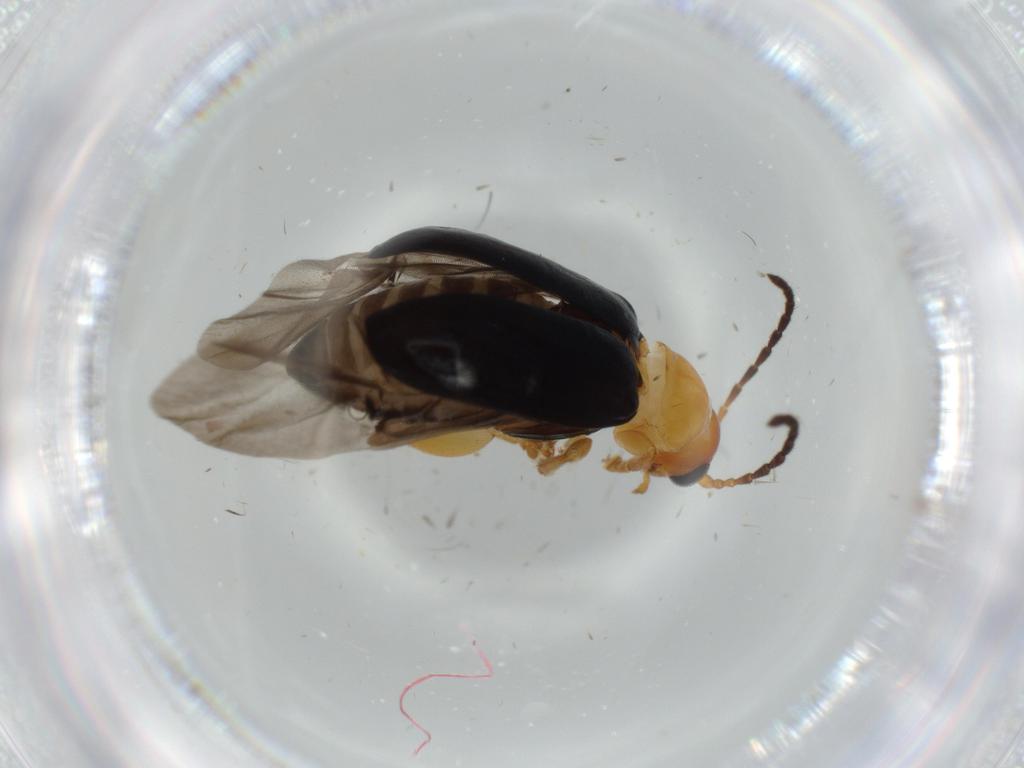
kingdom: Animalia
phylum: Arthropoda
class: Insecta
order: Coleoptera
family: Chrysomelidae
